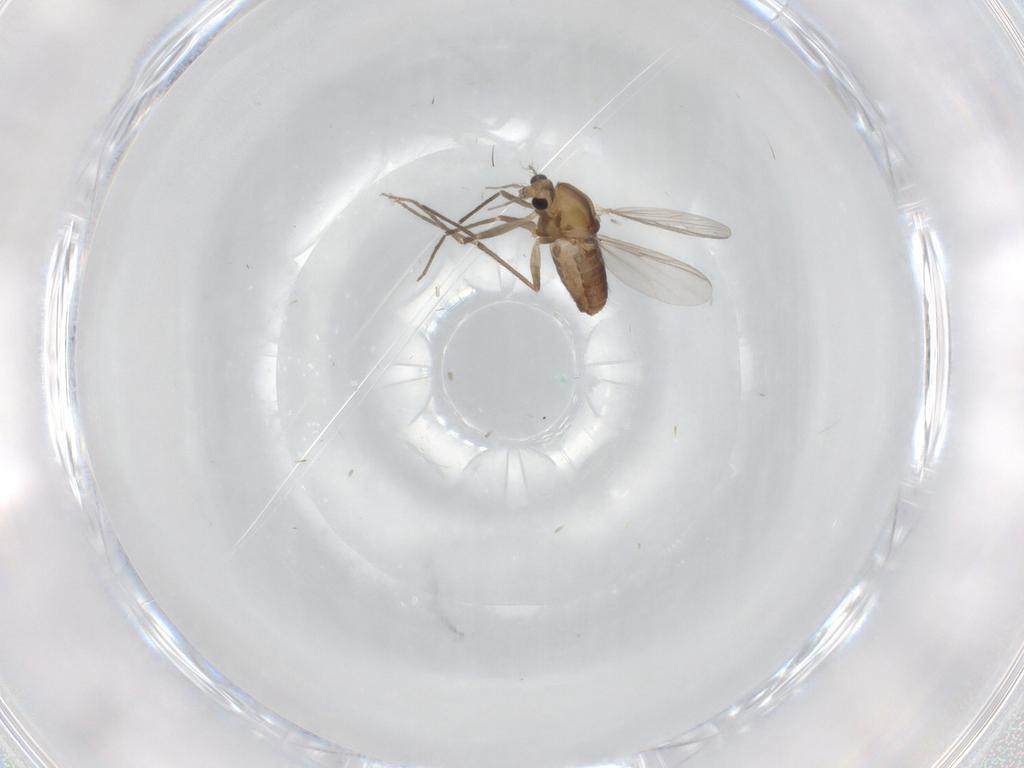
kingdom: Animalia
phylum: Arthropoda
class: Insecta
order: Diptera
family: Chironomidae
